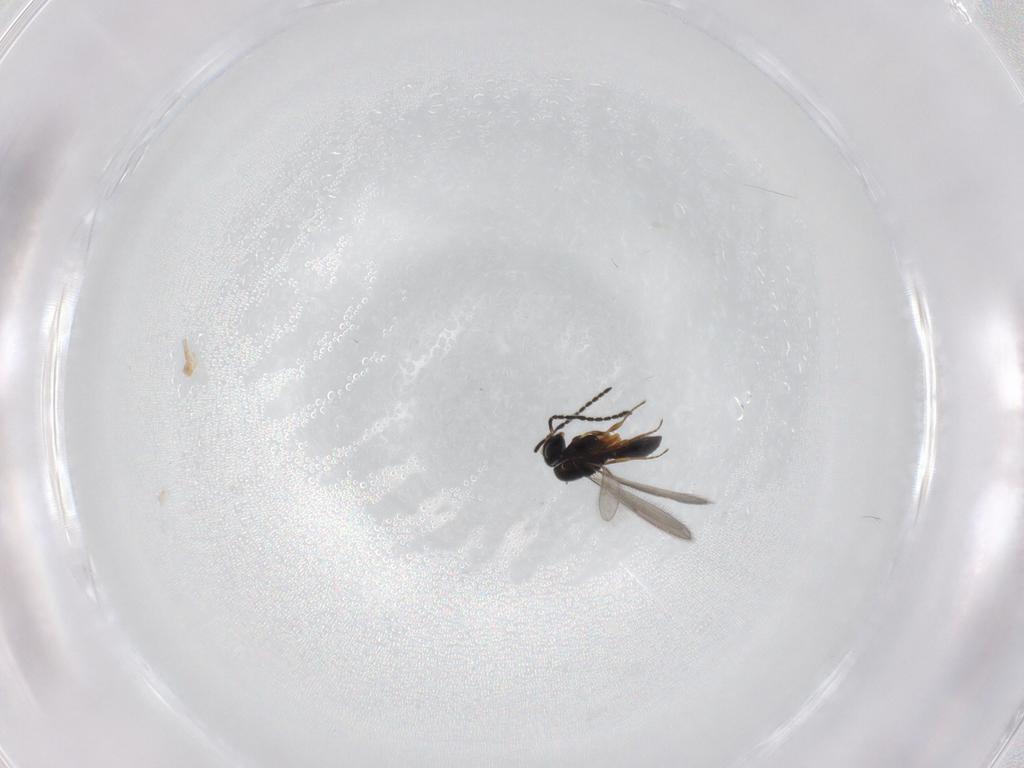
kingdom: Animalia
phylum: Arthropoda
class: Insecta
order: Hymenoptera
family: Scelionidae
